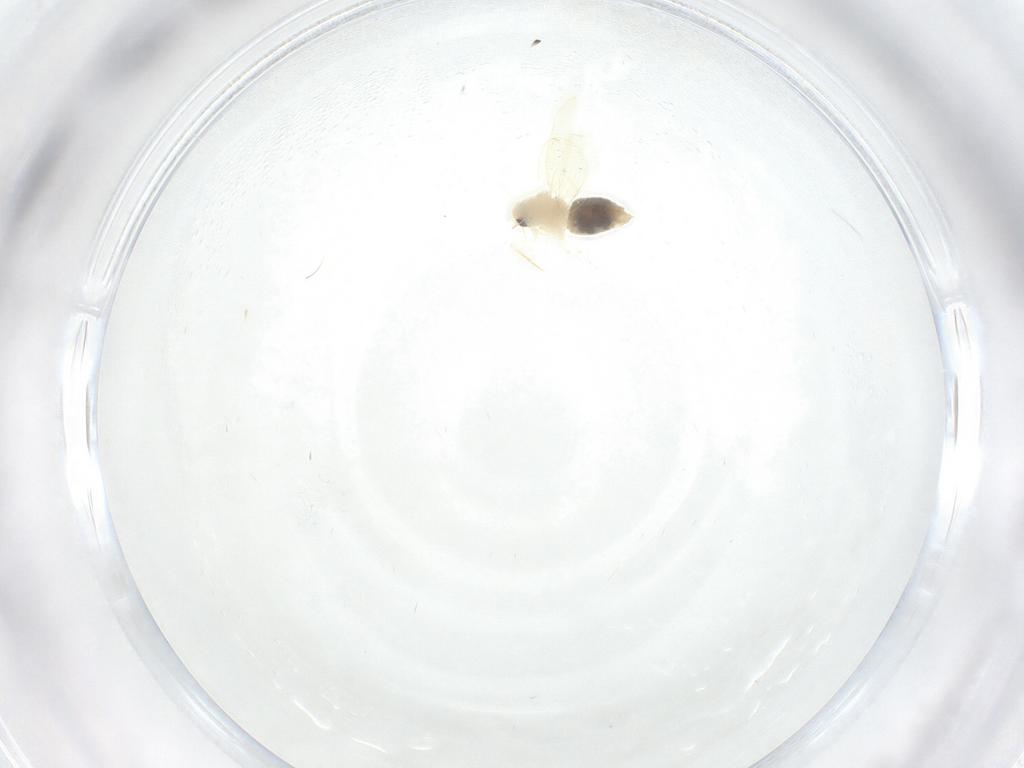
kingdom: Animalia
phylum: Arthropoda
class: Insecta
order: Hemiptera
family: Aleyrodidae
